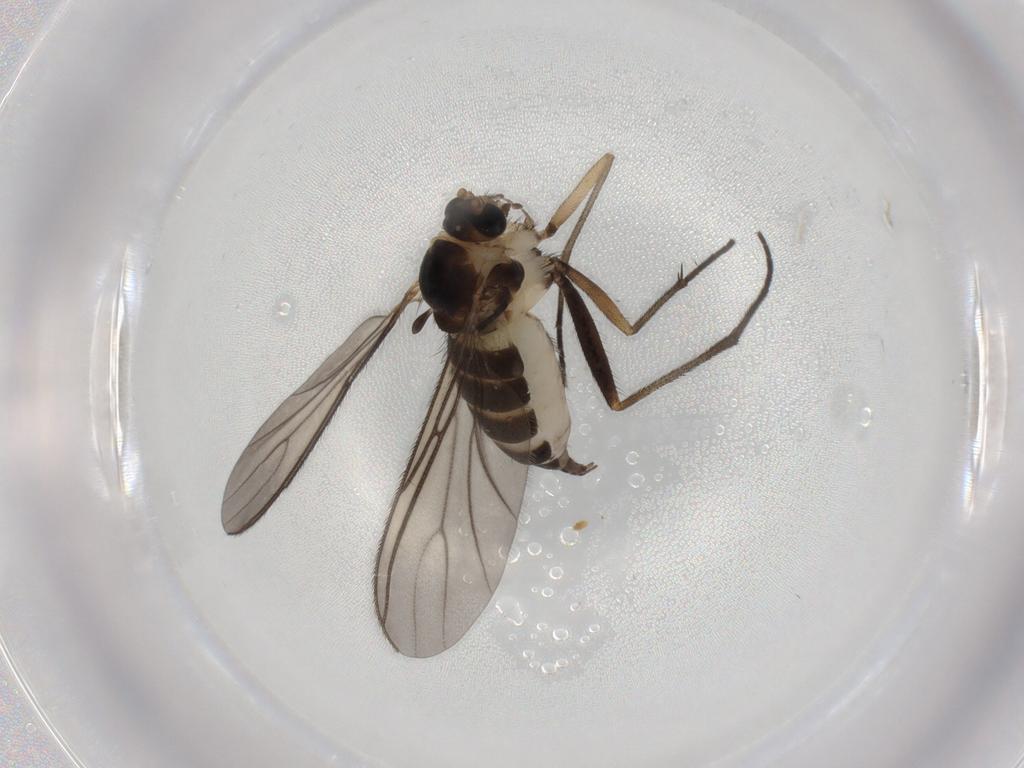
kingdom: Animalia
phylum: Arthropoda
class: Insecta
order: Diptera
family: Sciaridae
